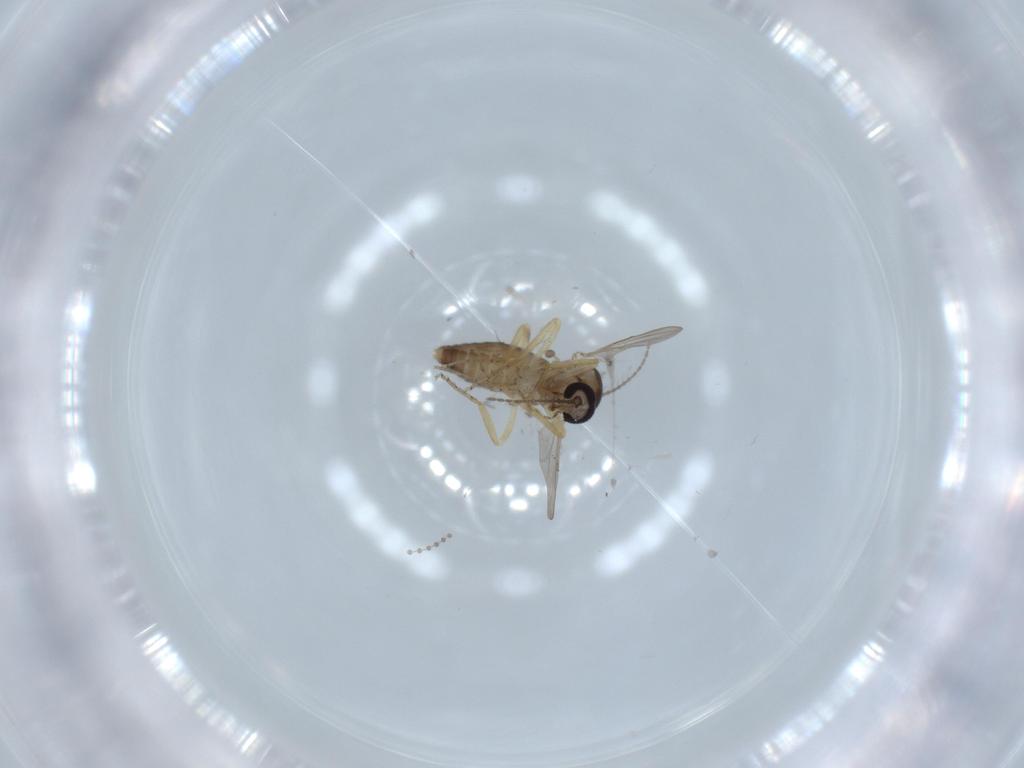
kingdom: Animalia
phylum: Arthropoda
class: Insecta
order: Diptera
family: Ceratopogonidae
